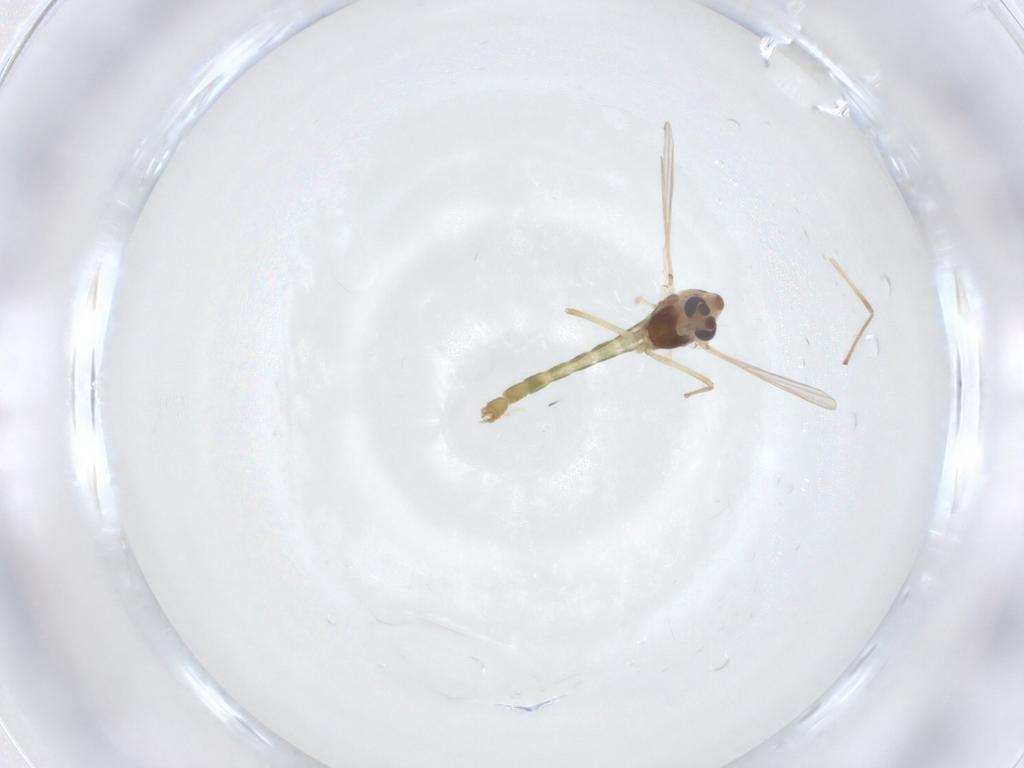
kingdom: Animalia
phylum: Arthropoda
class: Insecta
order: Diptera
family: Chironomidae
